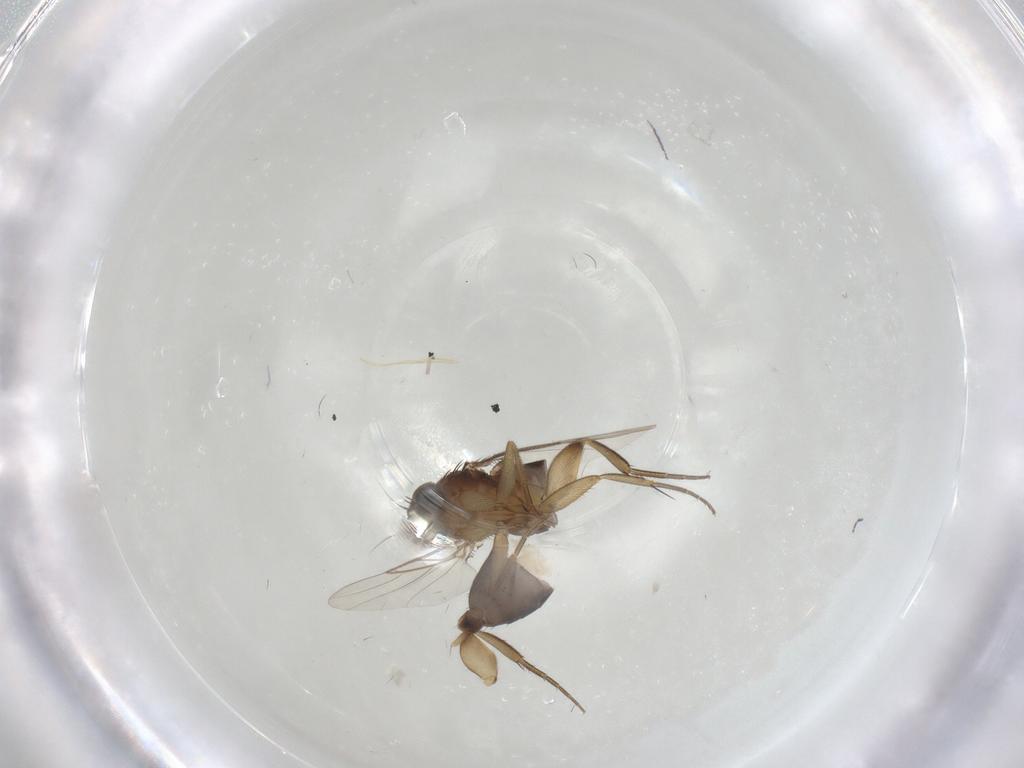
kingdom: Animalia
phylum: Arthropoda
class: Insecta
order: Diptera
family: Phoridae
